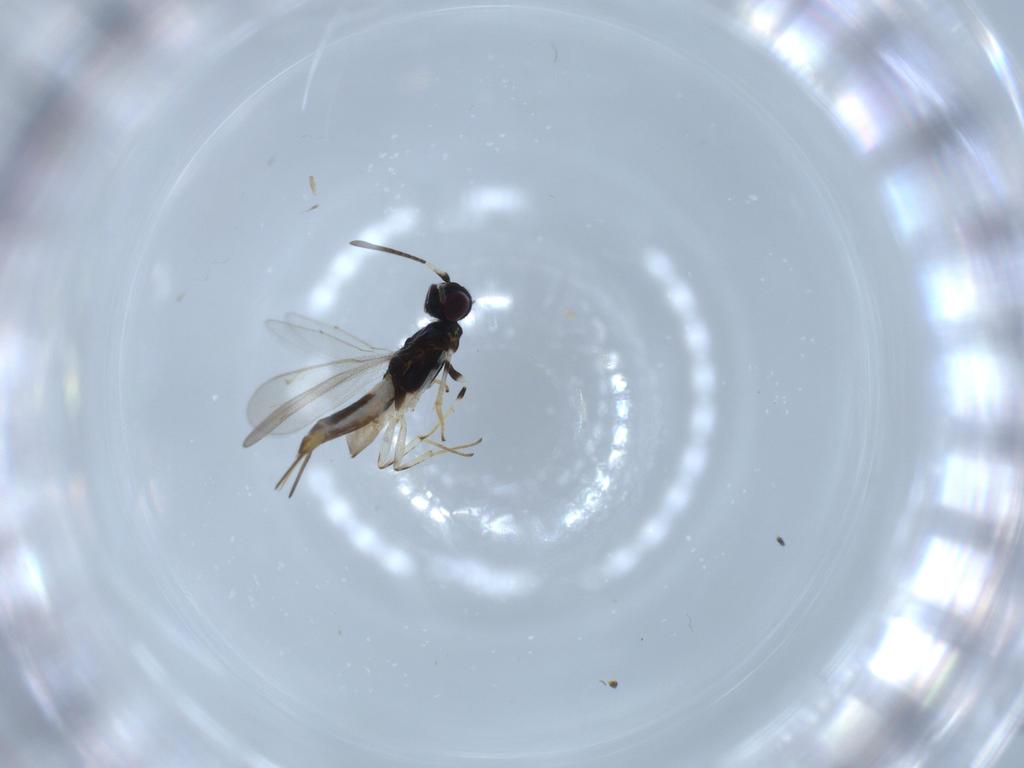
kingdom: Animalia
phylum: Arthropoda
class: Insecta
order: Hymenoptera
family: Eupelmidae
